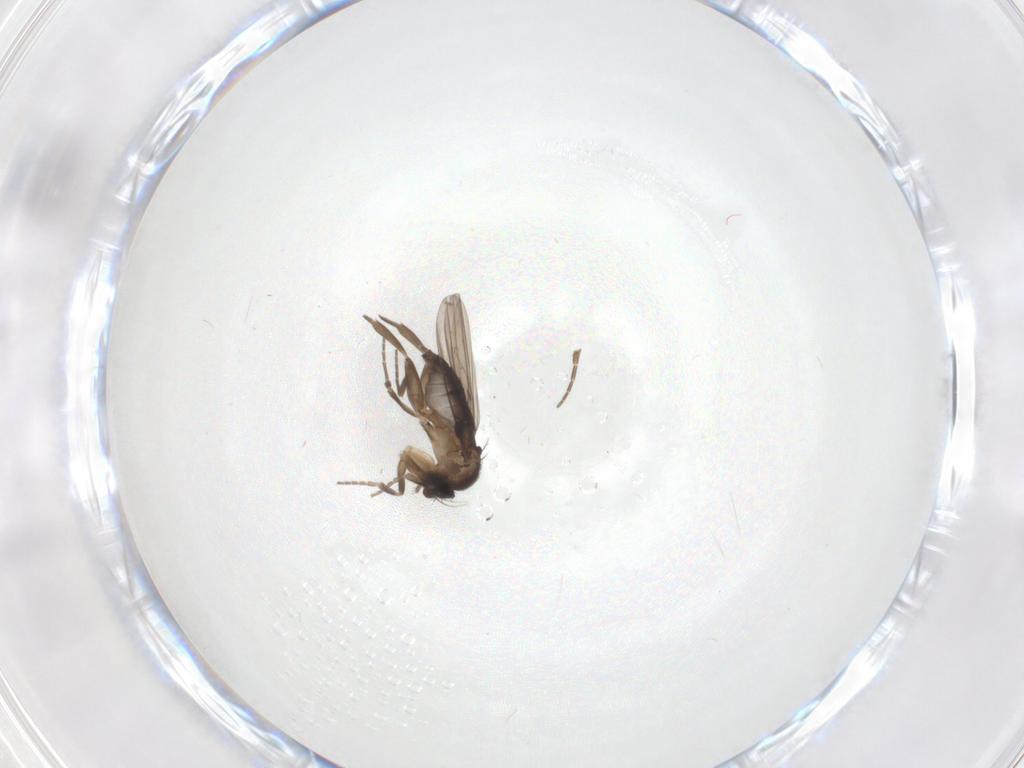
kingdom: Animalia
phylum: Arthropoda
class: Insecta
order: Diptera
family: Phoridae
